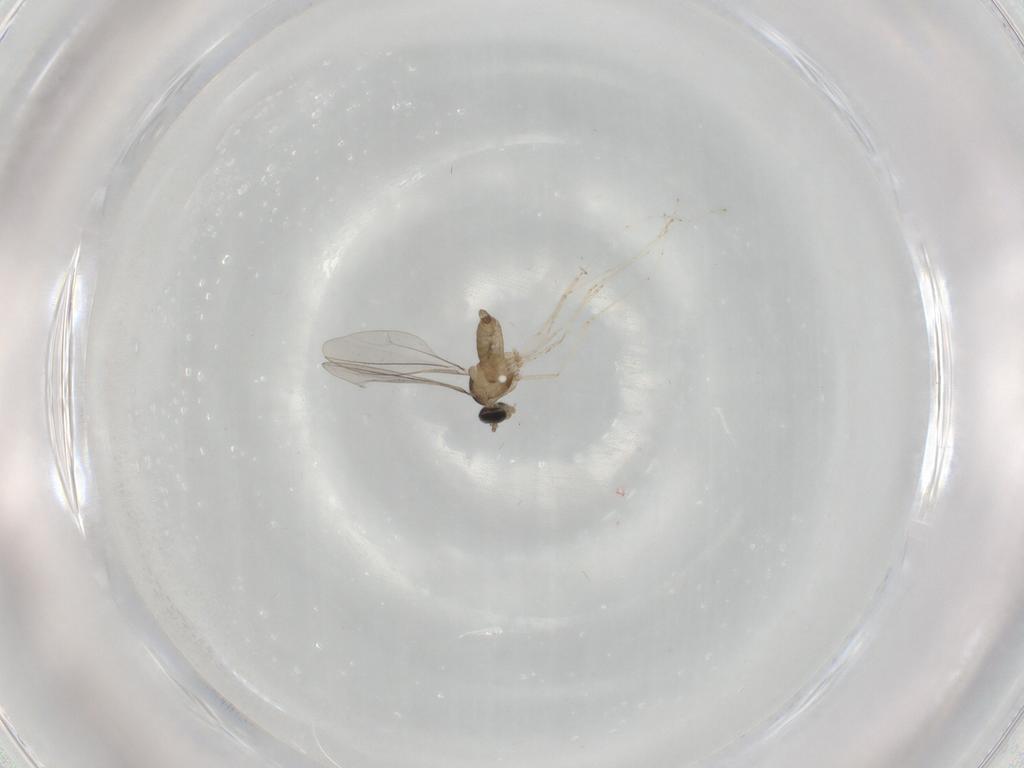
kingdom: Animalia
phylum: Arthropoda
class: Insecta
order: Diptera
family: Cecidomyiidae
